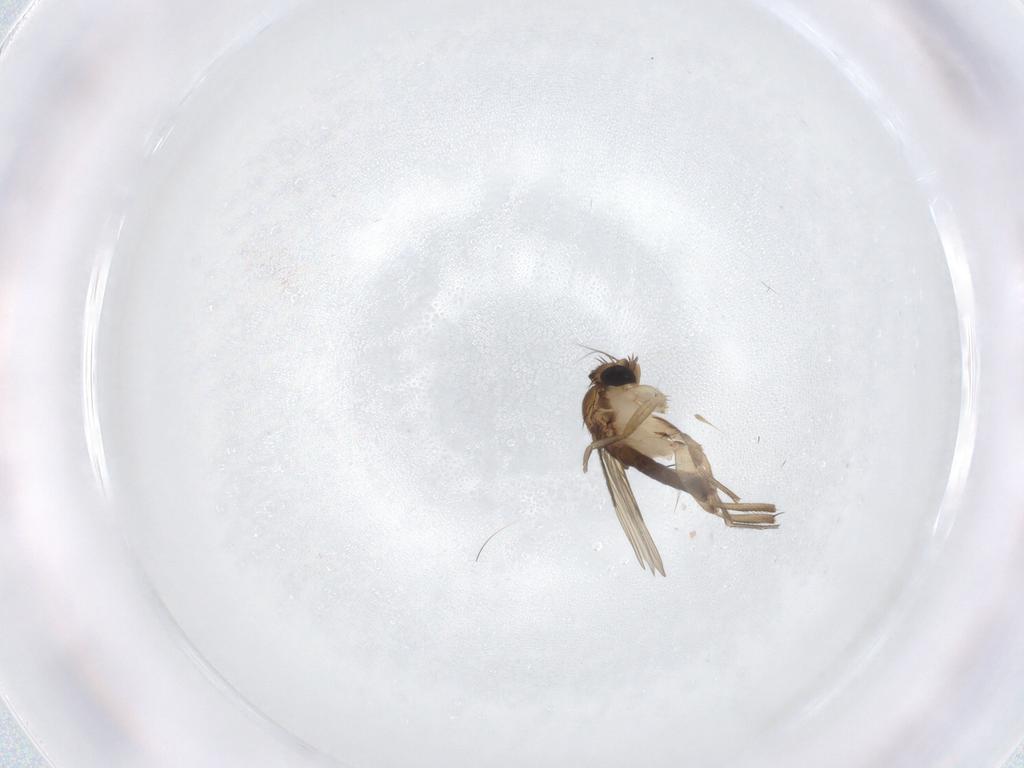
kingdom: Animalia
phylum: Arthropoda
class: Insecta
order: Diptera
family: Phoridae
